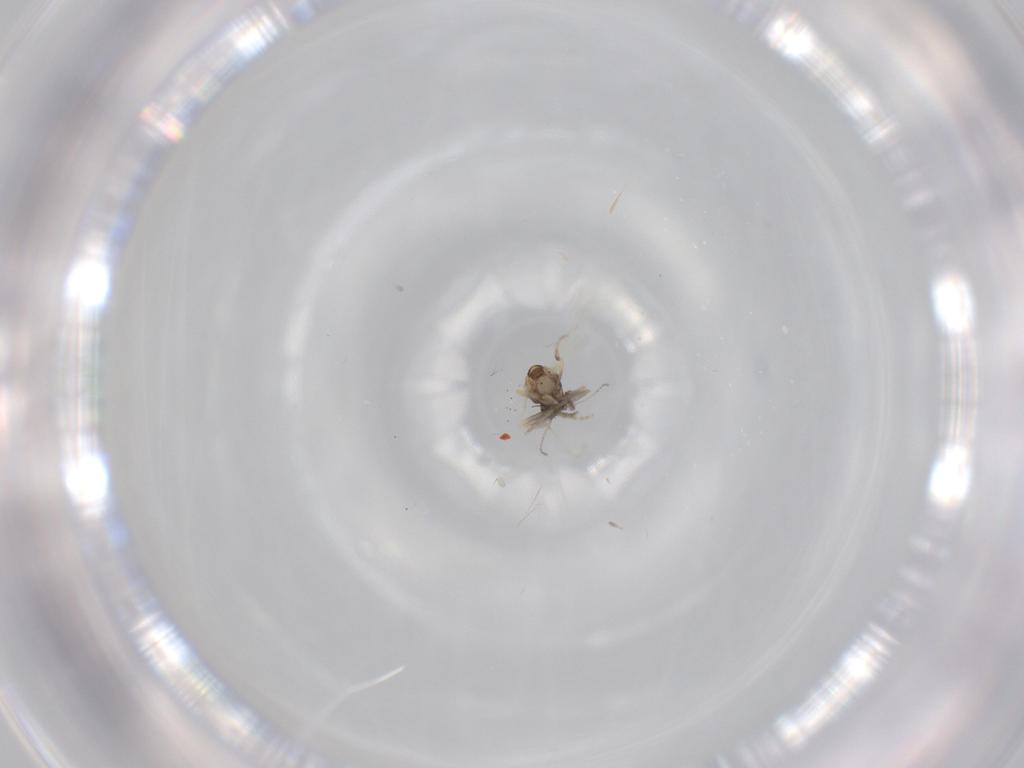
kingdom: Animalia
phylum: Arthropoda
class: Insecta
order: Diptera
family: Ceratopogonidae
